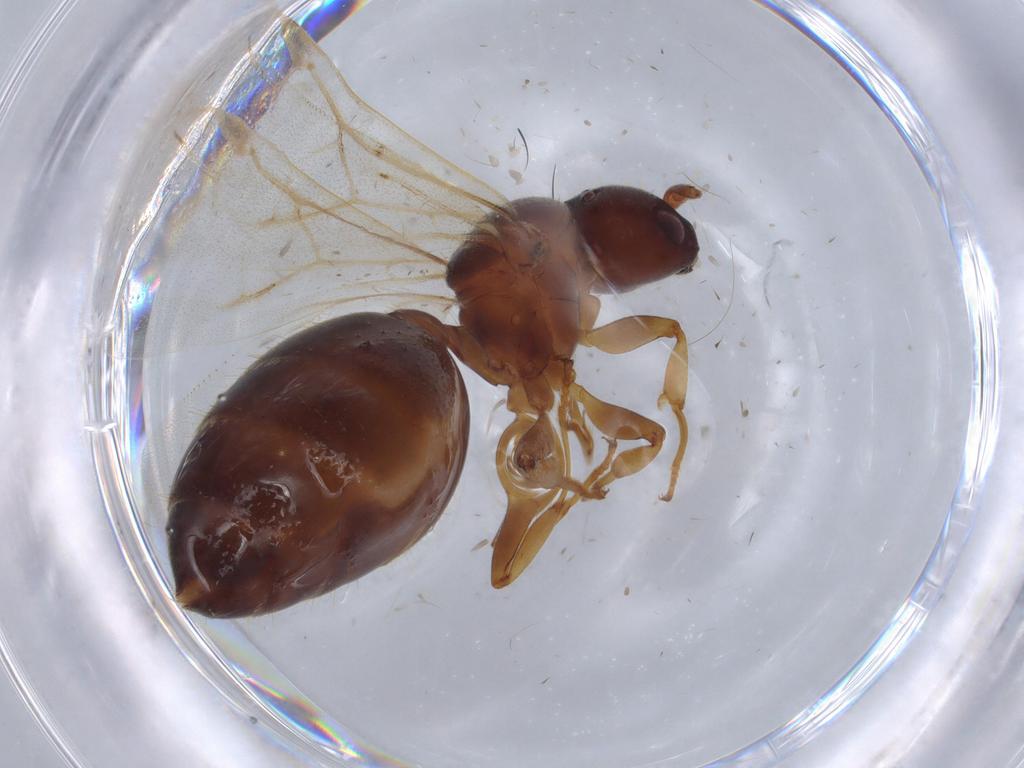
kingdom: Animalia
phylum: Arthropoda
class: Insecta
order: Hymenoptera
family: Formicidae
